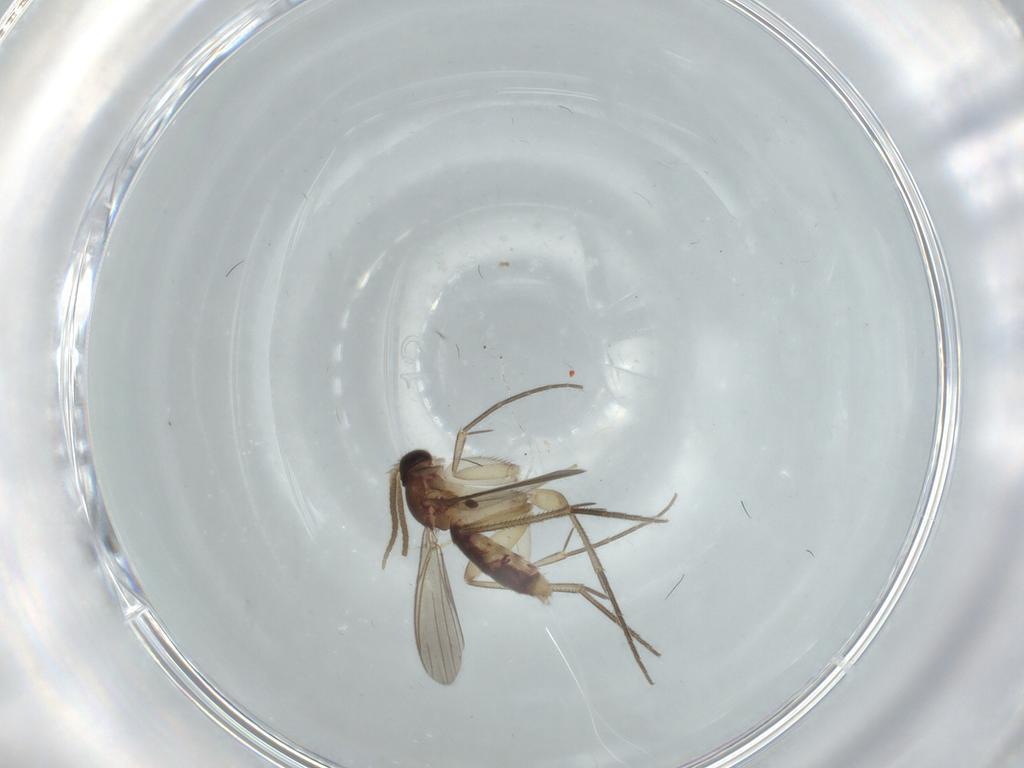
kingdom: Animalia
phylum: Arthropoda
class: Insecta
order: Diptera
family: Mycetophilidae
